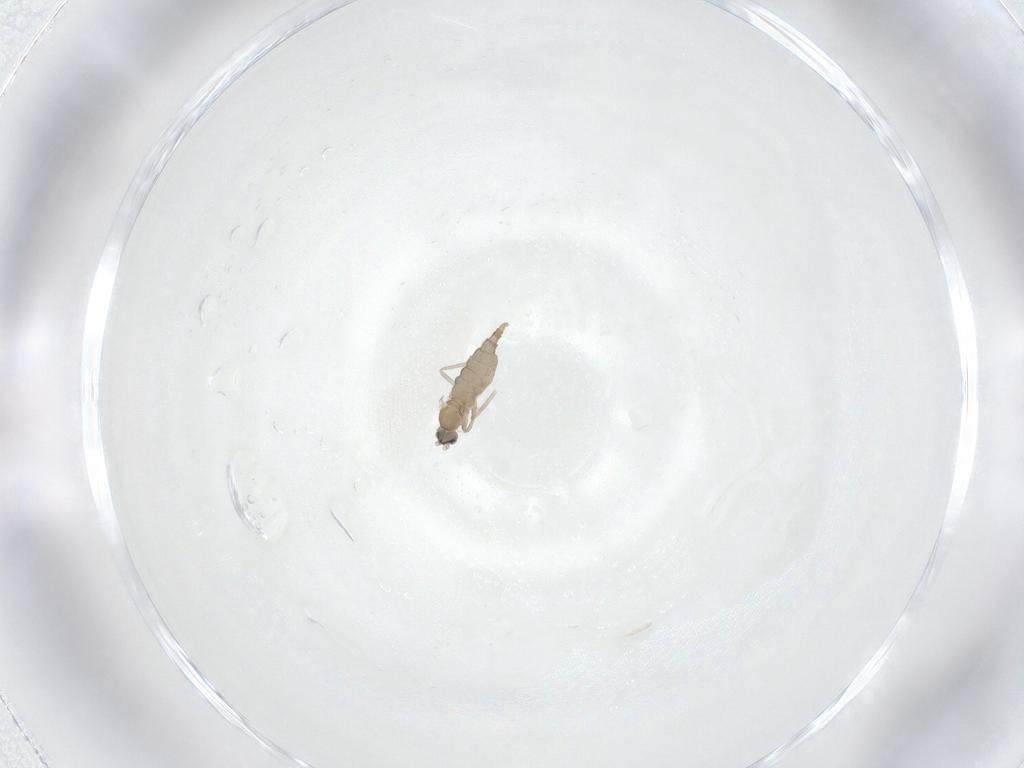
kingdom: Animalia
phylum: Arthropoda
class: Insecta
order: Diptera
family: Cecidomyiidae
